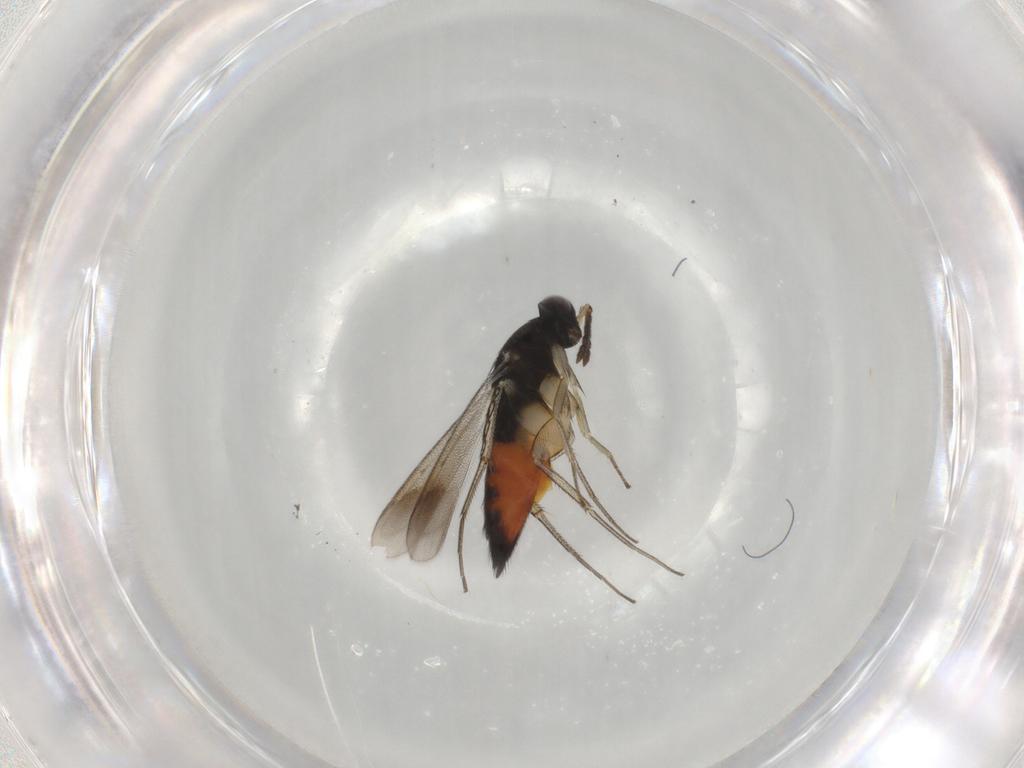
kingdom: Animalia
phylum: Arthropoda
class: Insecta
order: Hymenoptera
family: Eulophidae
